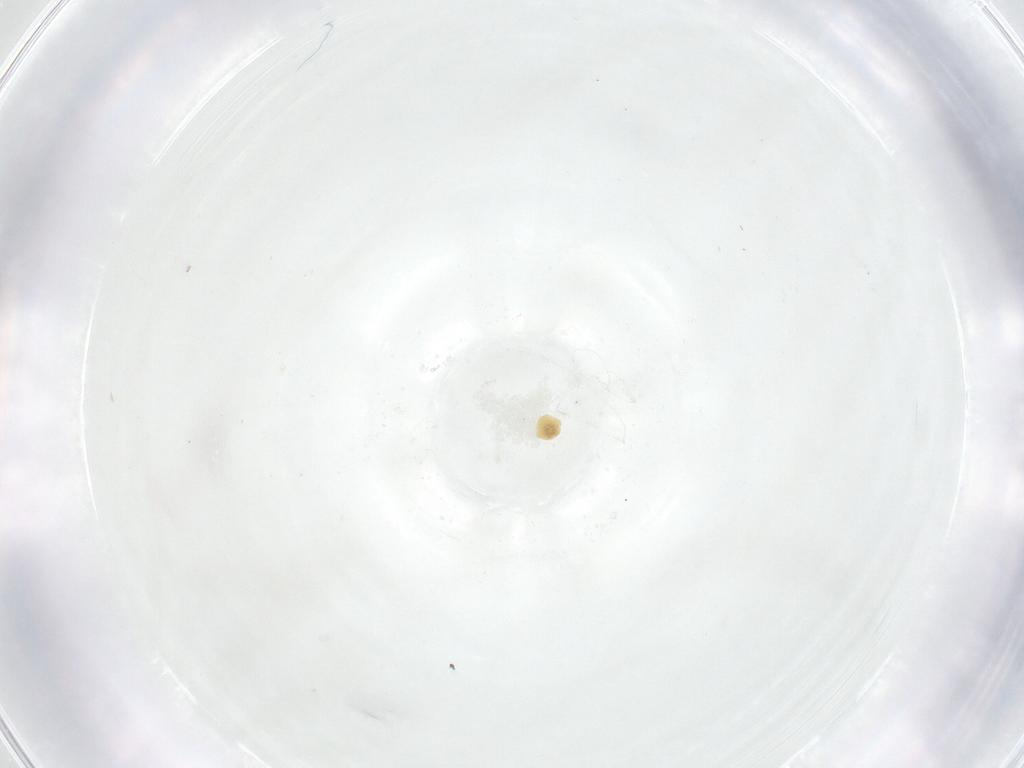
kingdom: Animalia
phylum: Arthropoda
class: Insecta
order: Diptera
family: Fergusoninidae
